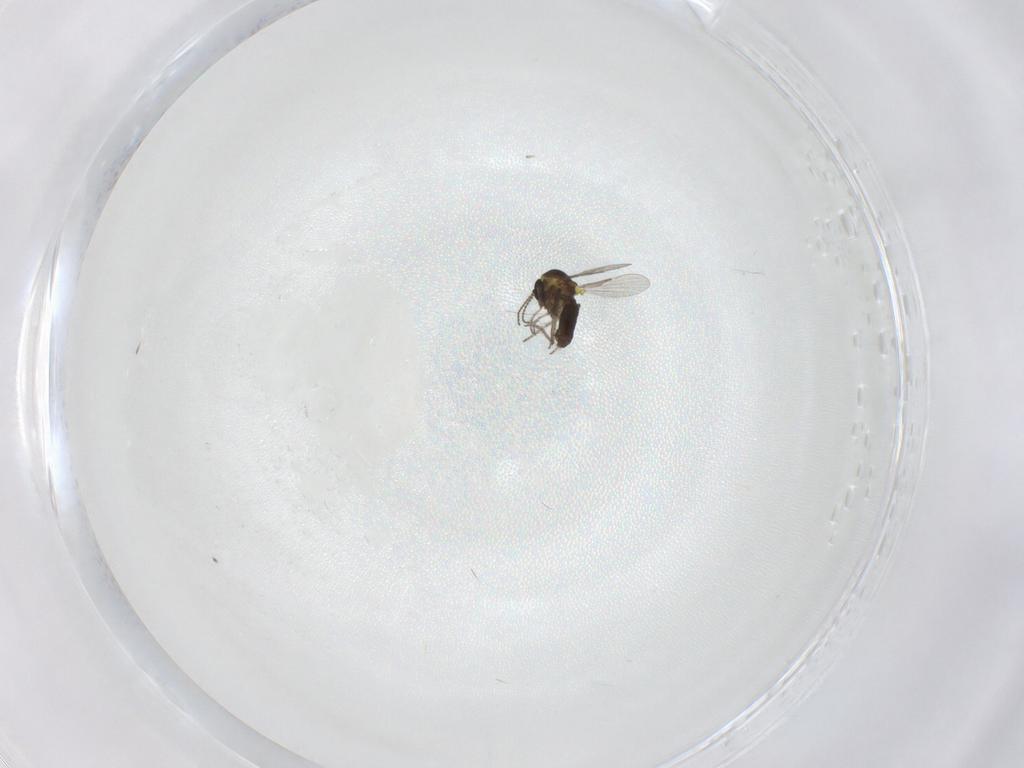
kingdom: Animalia
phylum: Arthropoda
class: Insecta
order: Diptera
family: Ceratopogonidae
